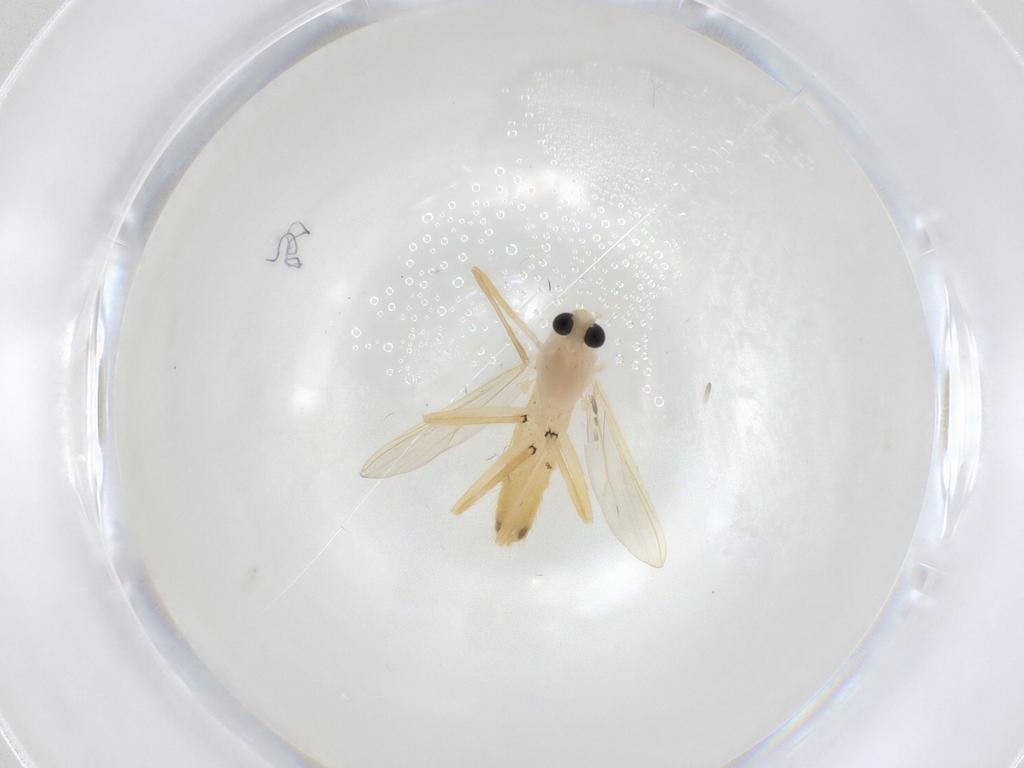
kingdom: Animalia
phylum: Arthropoda
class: Insecta
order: Diptera
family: Chironomidae
